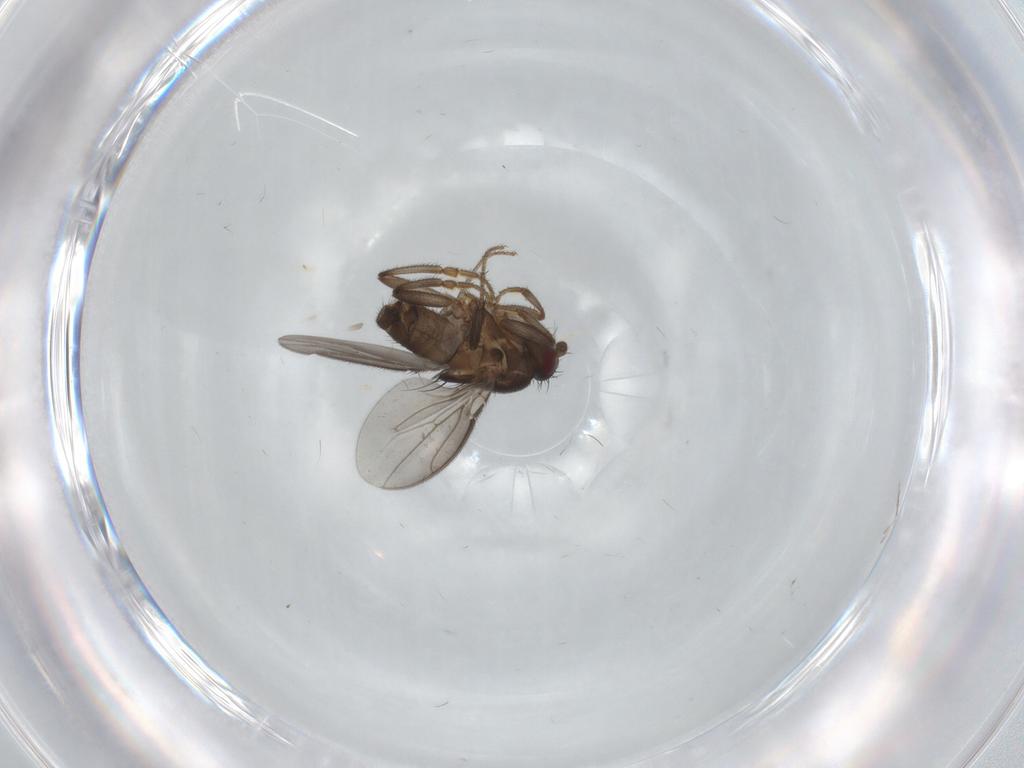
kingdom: Animalia
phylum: Arthropoda
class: Insecta
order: Diptera
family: Sphaeroceridae
